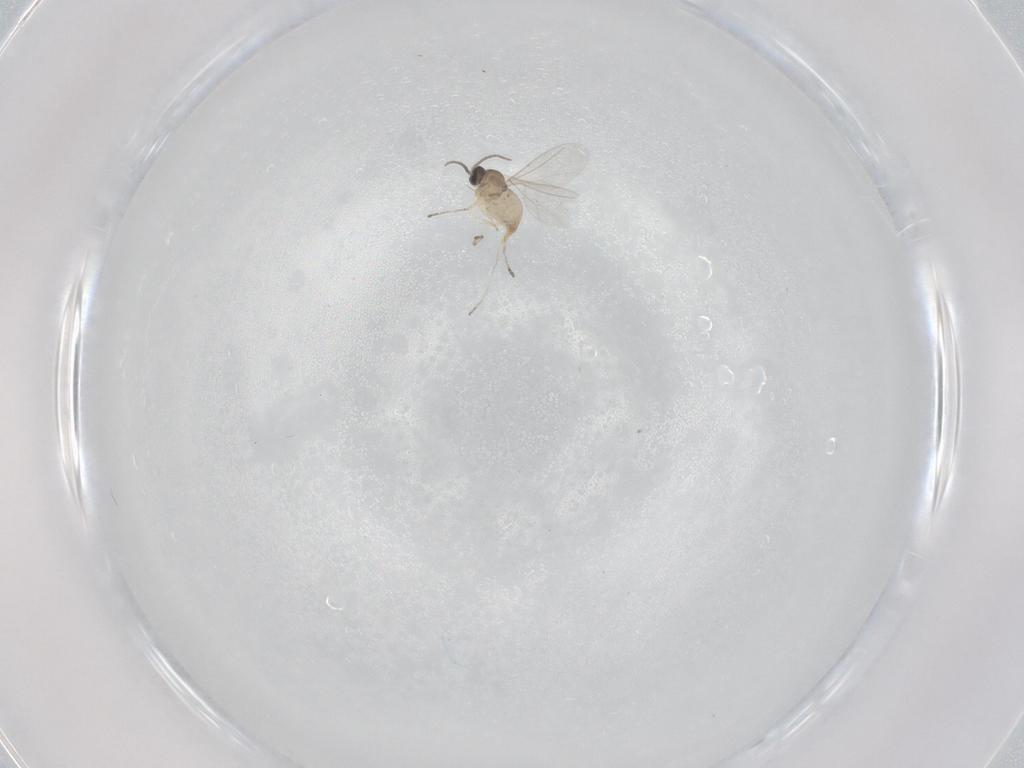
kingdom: Animalia
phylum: Arthropoda
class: Insecta
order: Diptera
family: Cecidomyiidae
